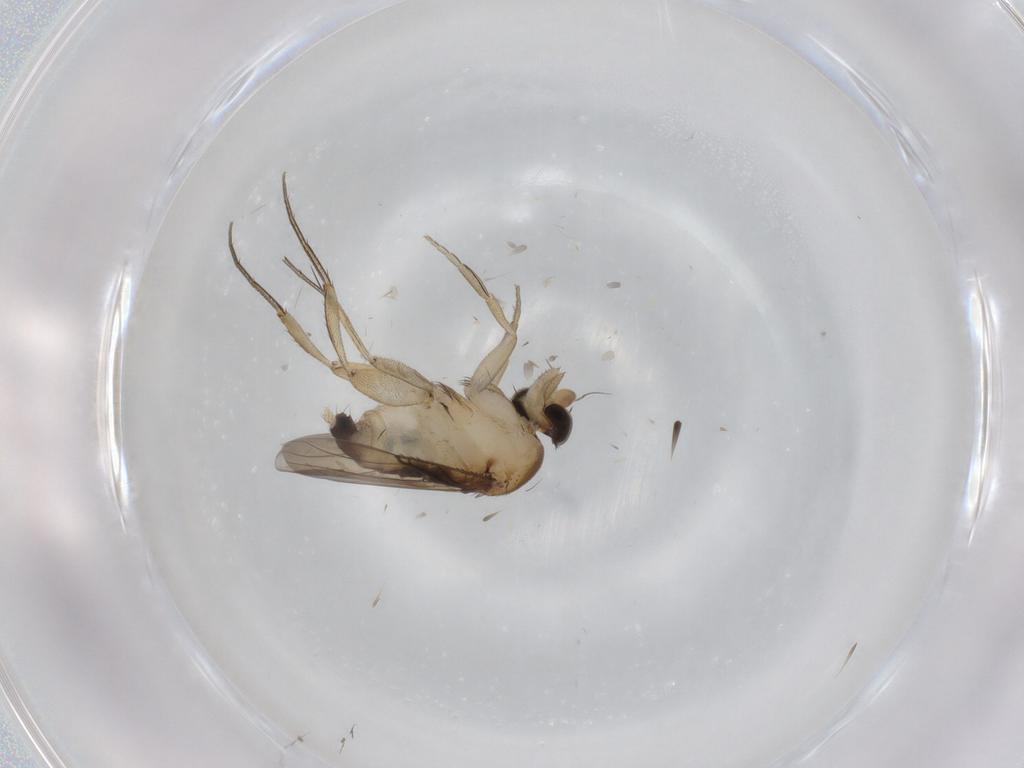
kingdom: Animalia
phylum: Arthropoda
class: Insecta
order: Diptera
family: Phoridae
